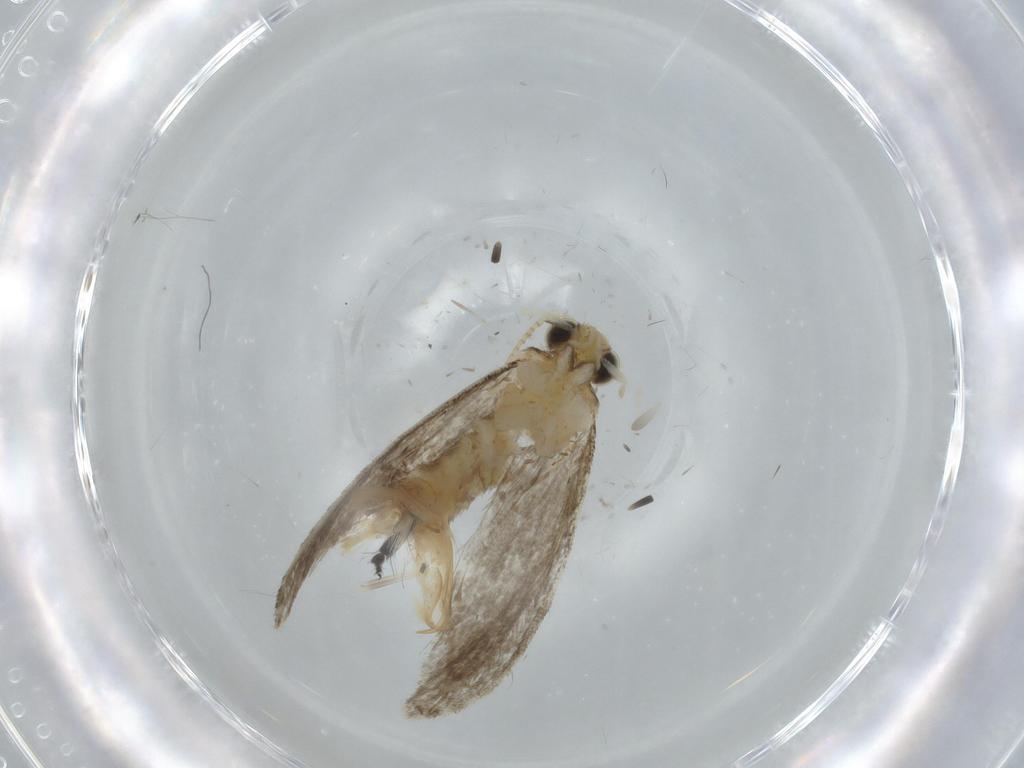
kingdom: Animalia
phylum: Arthropoda
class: Insecta
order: Lepidoptera
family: Tineidae
